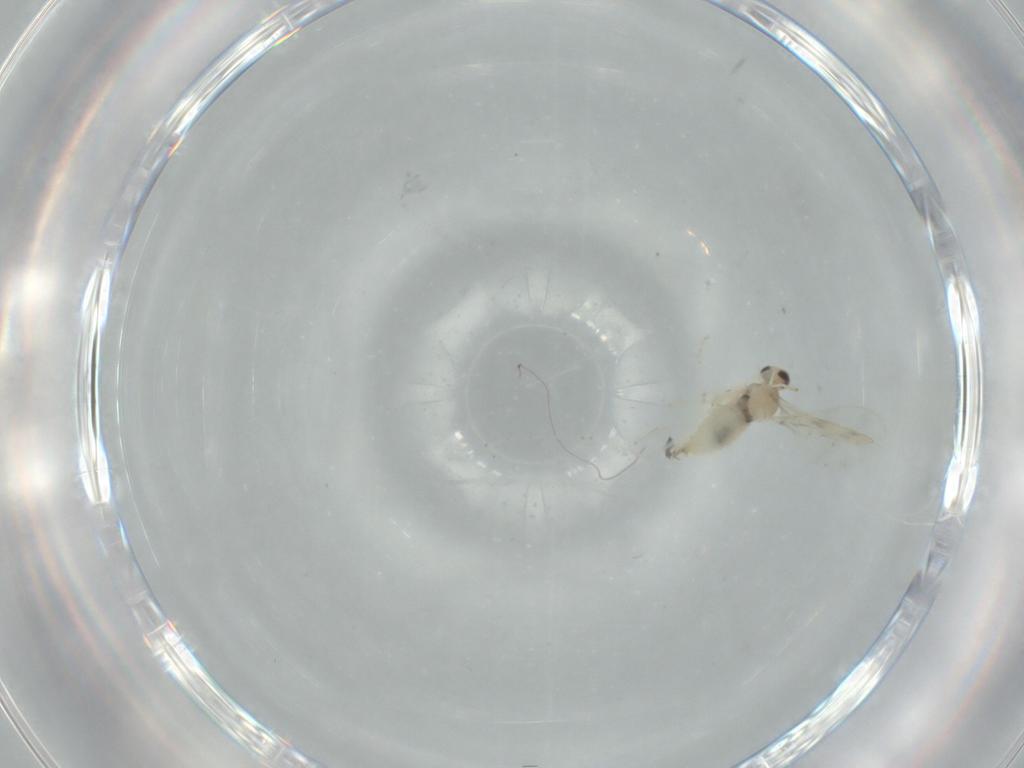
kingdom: Animalia
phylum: Arthropoda
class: Insecta
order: Diptera
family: Cecidomyiidae
